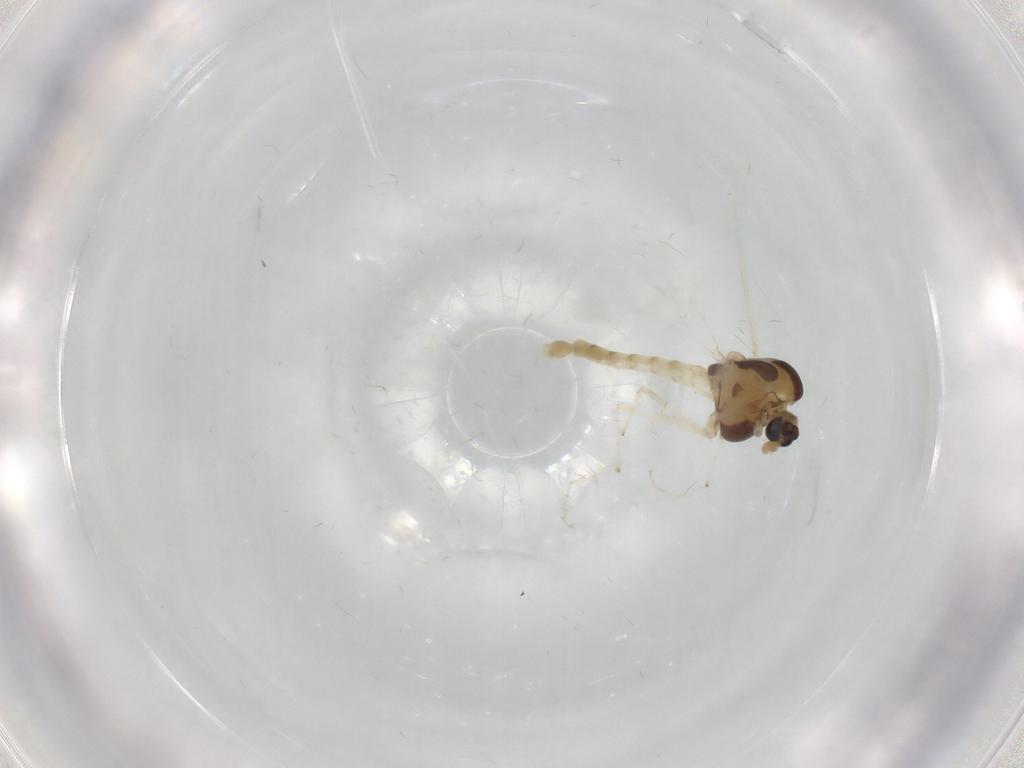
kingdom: Animalia
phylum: Arthropoda
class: Insecta
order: Diptera
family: Chironomidae
